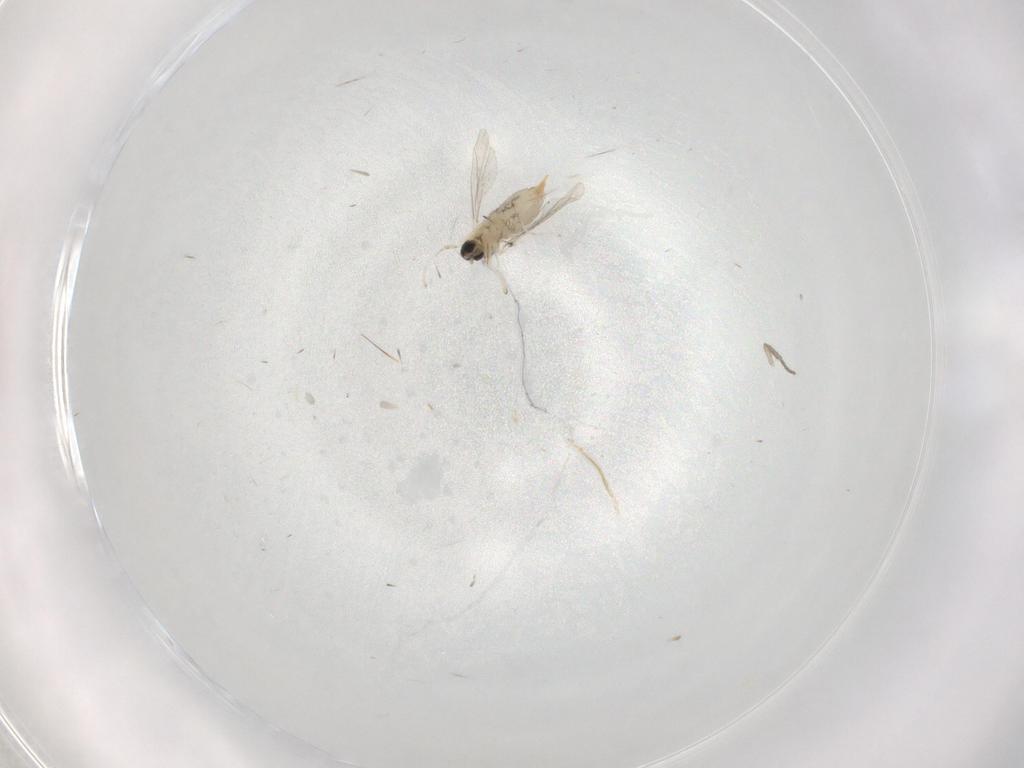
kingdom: Animalia
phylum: Arthropoda
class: Insecta
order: Diptera
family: Cecidomyiidae
